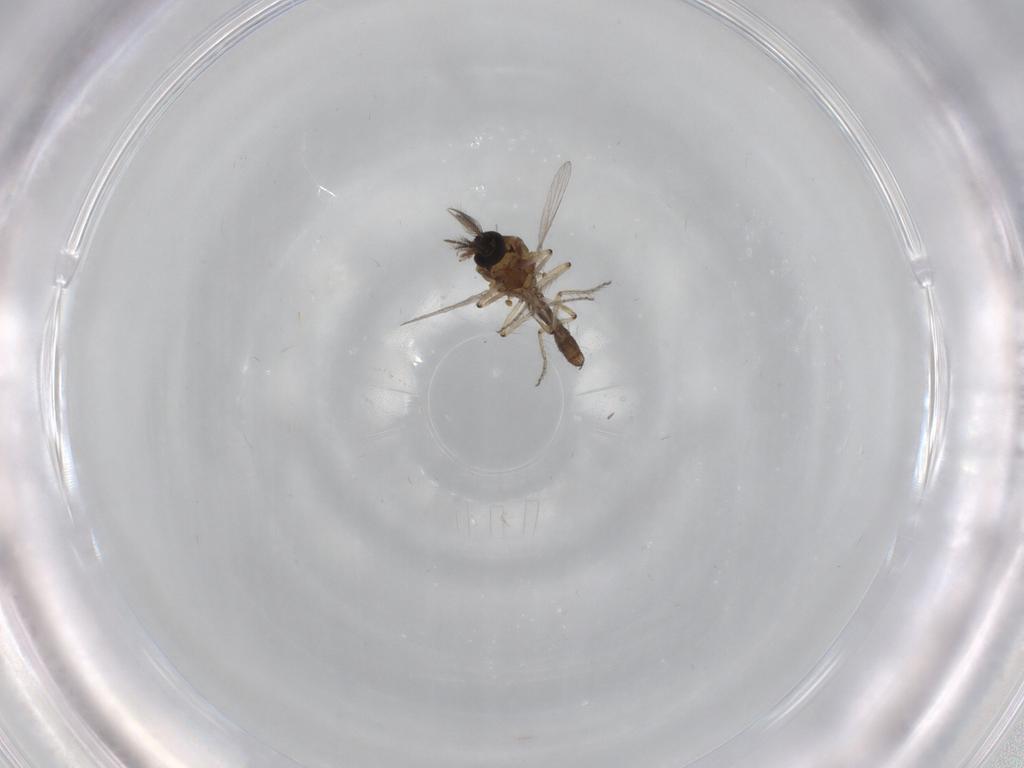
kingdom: Animalia
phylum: Arthropoda
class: Insecta
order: Diptera
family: Ceratopogonidae
